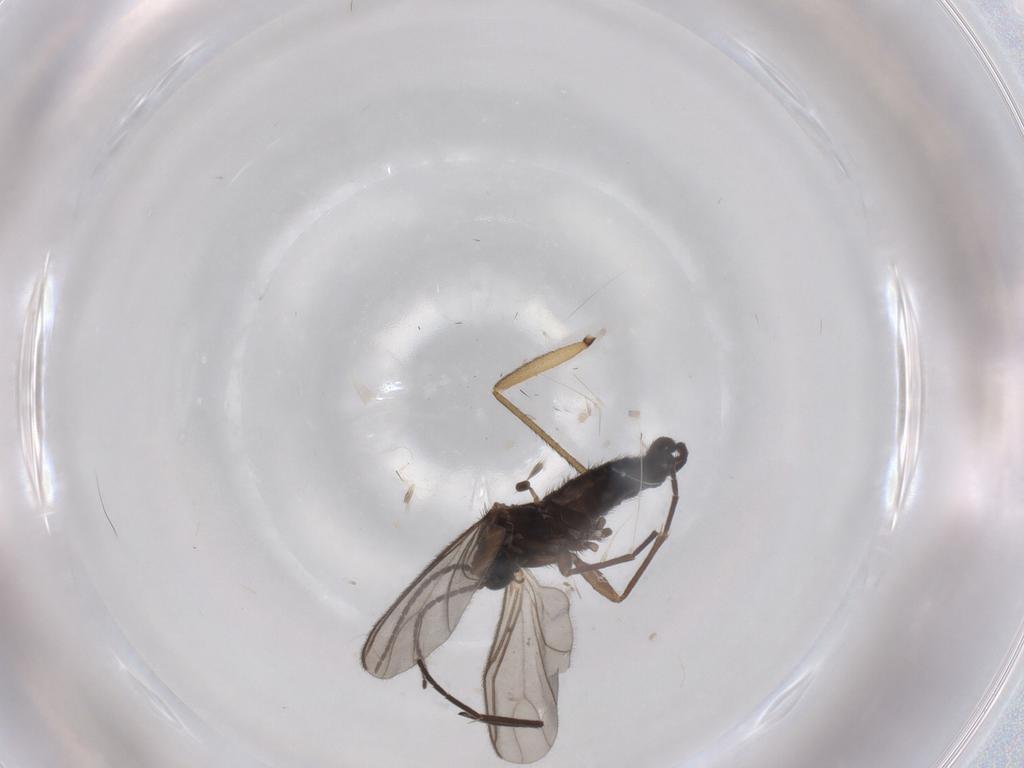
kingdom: Animalia
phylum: Arthropoda
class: Insecta
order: Diptera
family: Sciaridae
